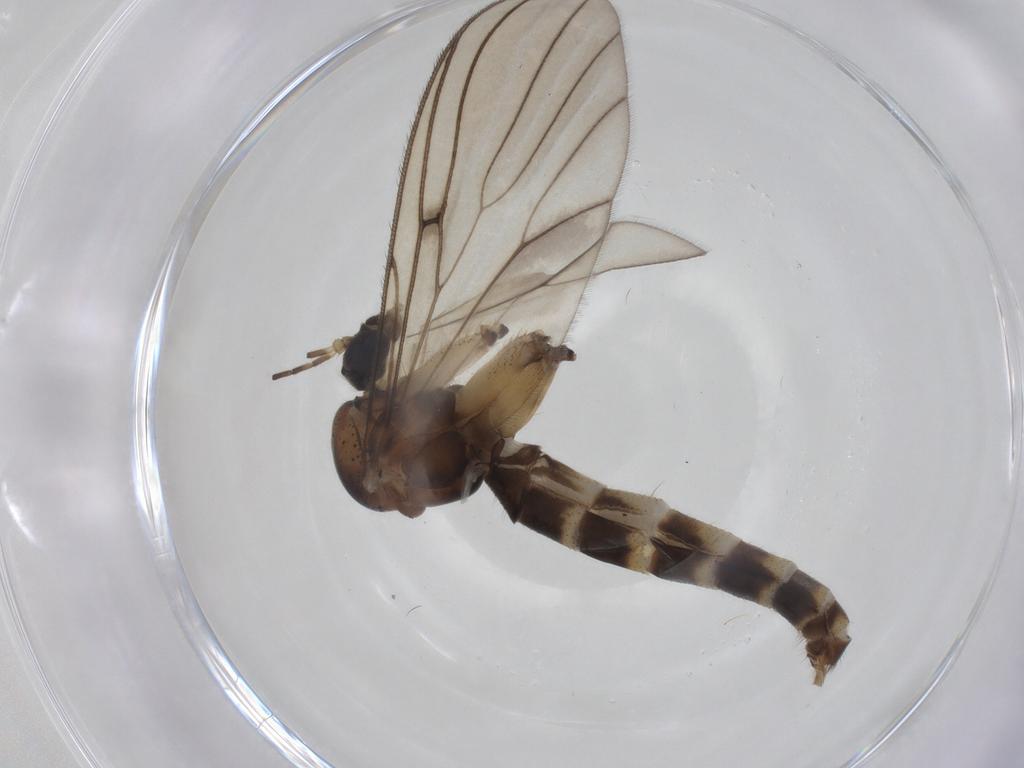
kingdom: Animalia
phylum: Arthropoda
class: Insecta
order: Diptera
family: Mycetophilidae
